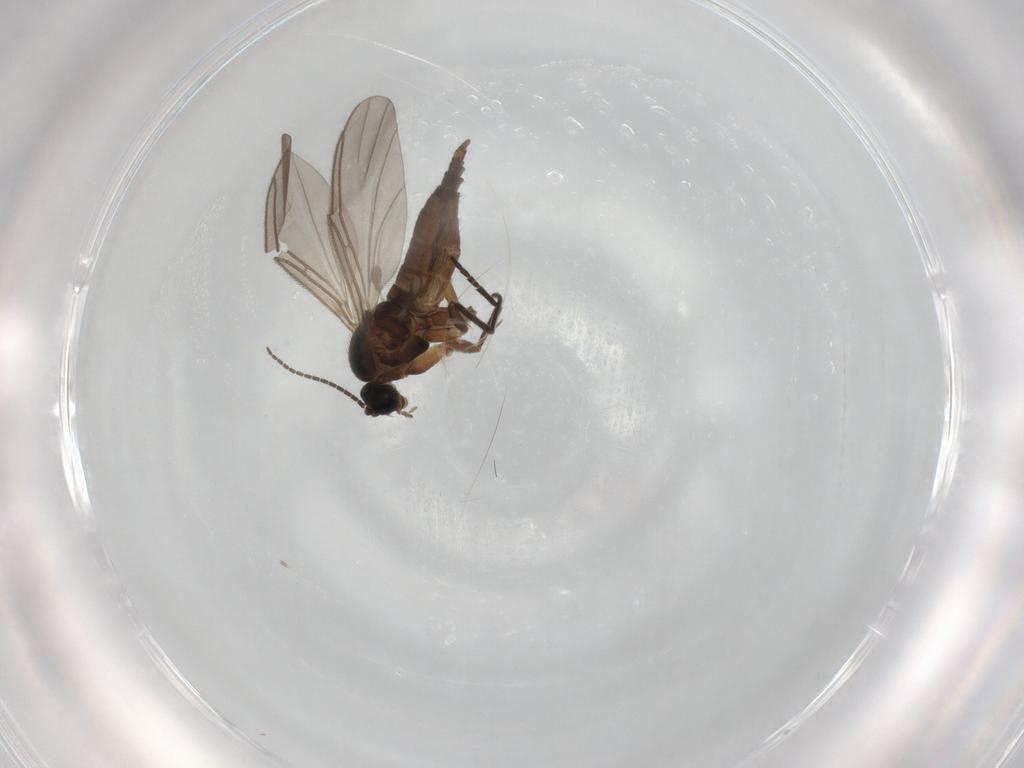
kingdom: Animalia
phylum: Arthropoda
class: Insecta
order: Diptera
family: Sciaridae
